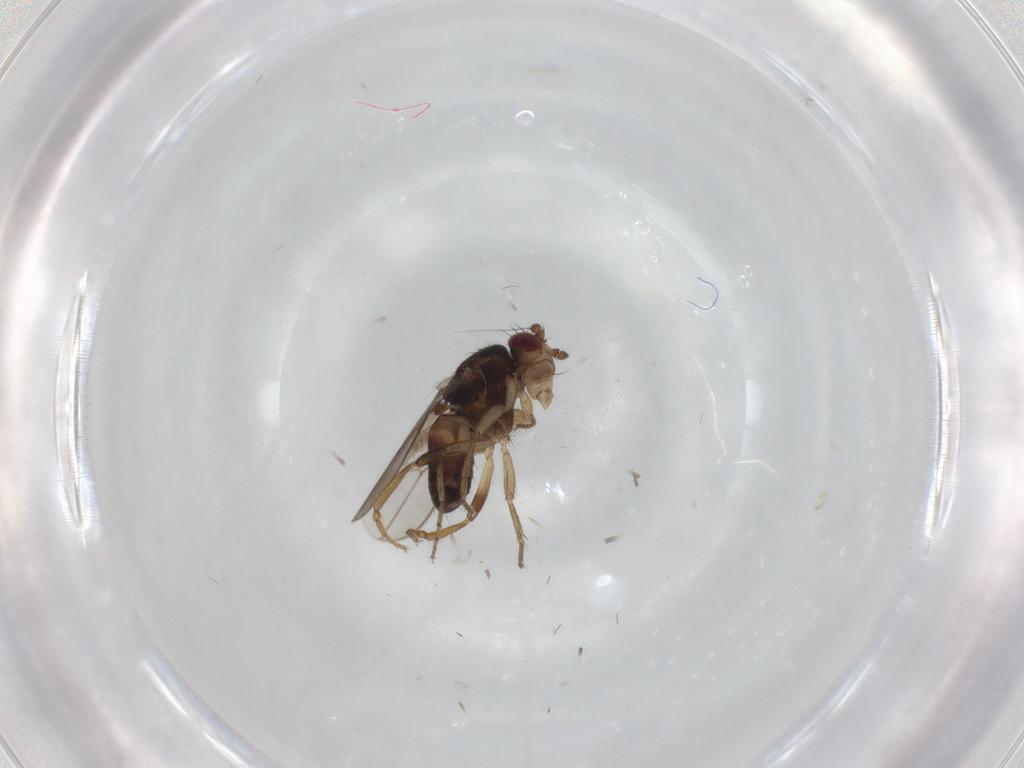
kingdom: Animalia
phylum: Arthropoda
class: Insecta
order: Diptera
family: Sphaeroceridae
